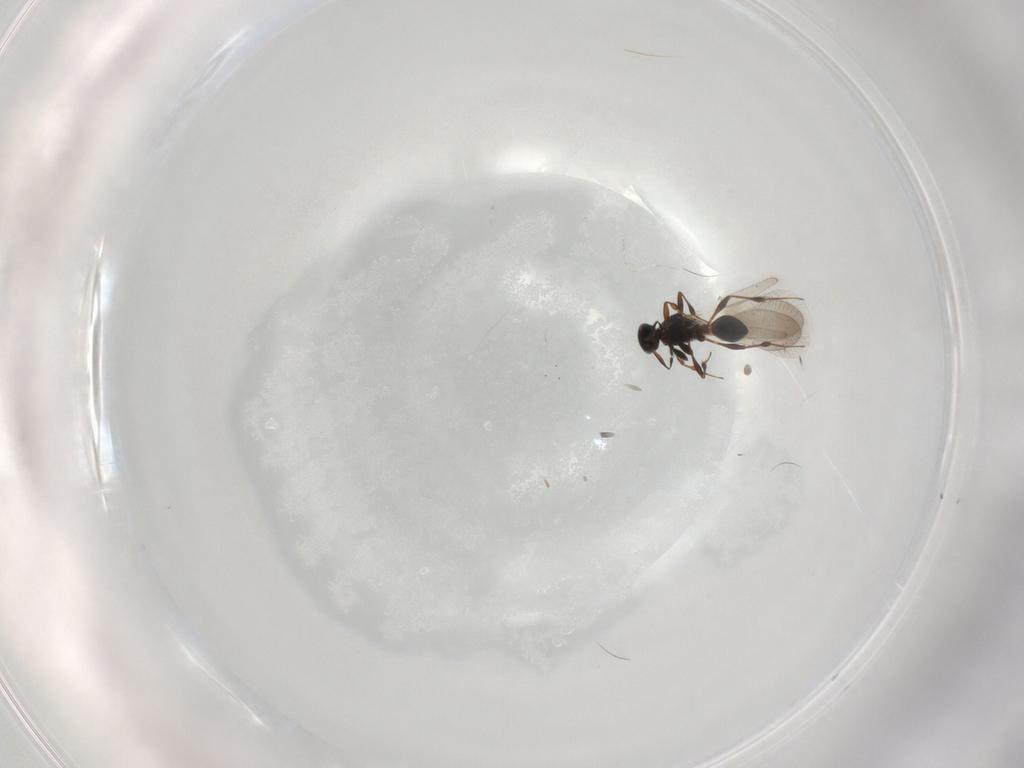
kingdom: Animalia
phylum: Arthropoda
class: Insecta
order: Hymenoptera
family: Platygastridae
